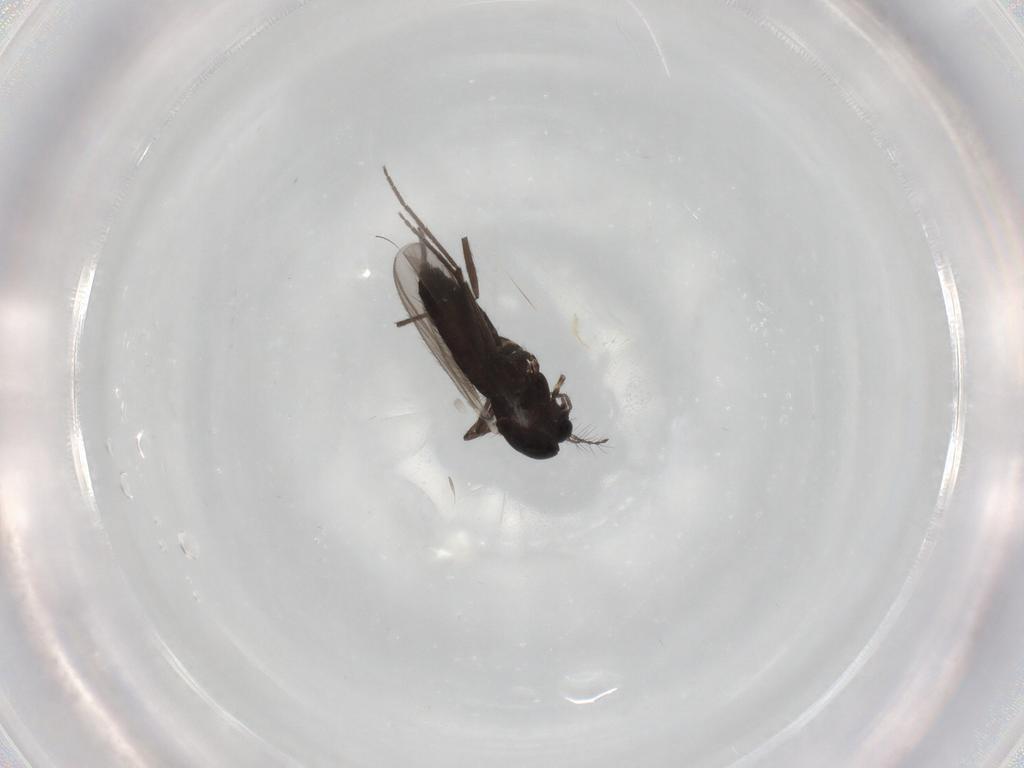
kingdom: Animalia
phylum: Arthropoda
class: Insecta
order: Diptera
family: Chironomidae
